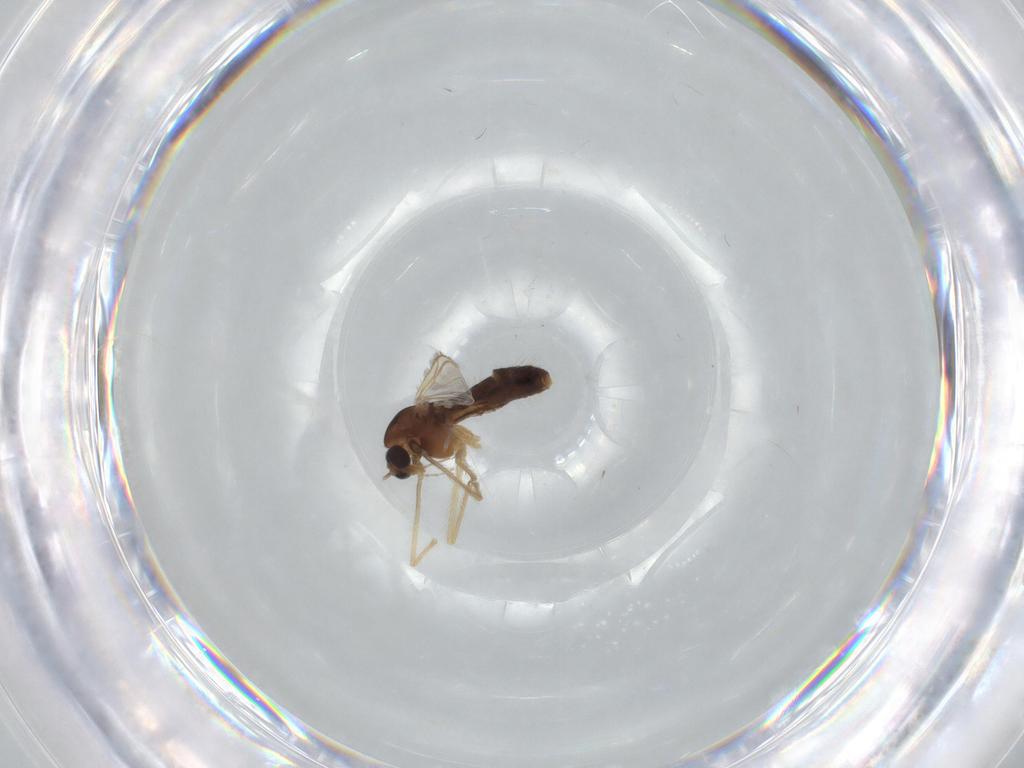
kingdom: Animalia
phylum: Arthropoda
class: Insecta
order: Diptera
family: Chironomidae
